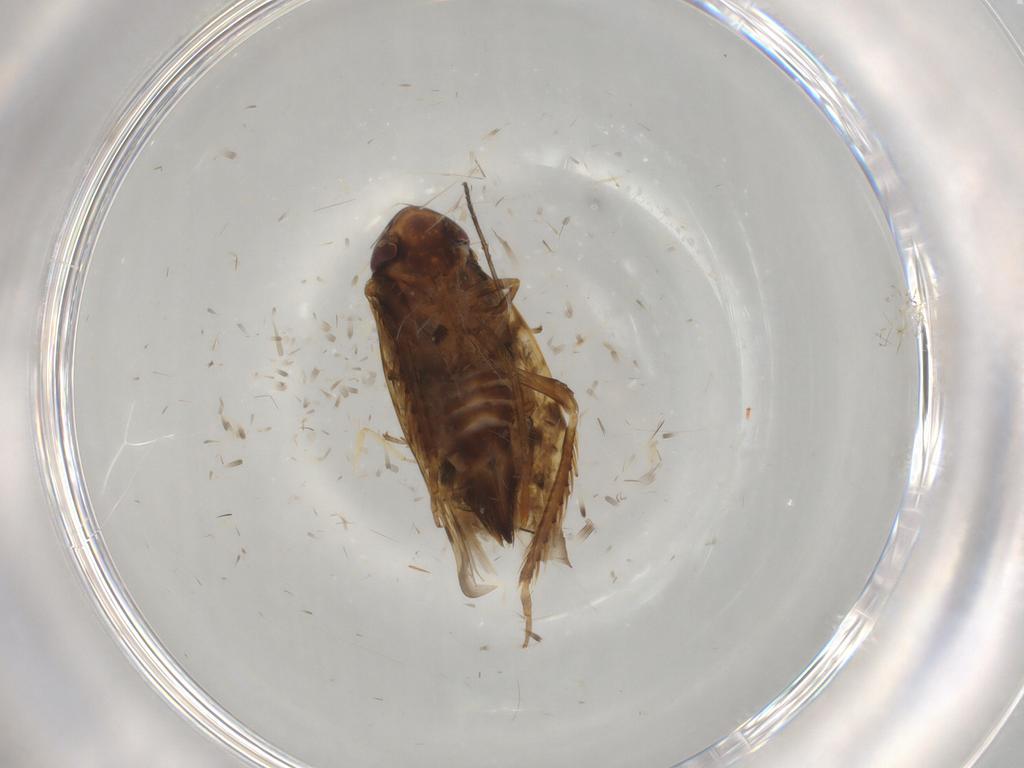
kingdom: Animalia
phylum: Arthropoda
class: Insecta
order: Hemiptera
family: Cicadellidae
